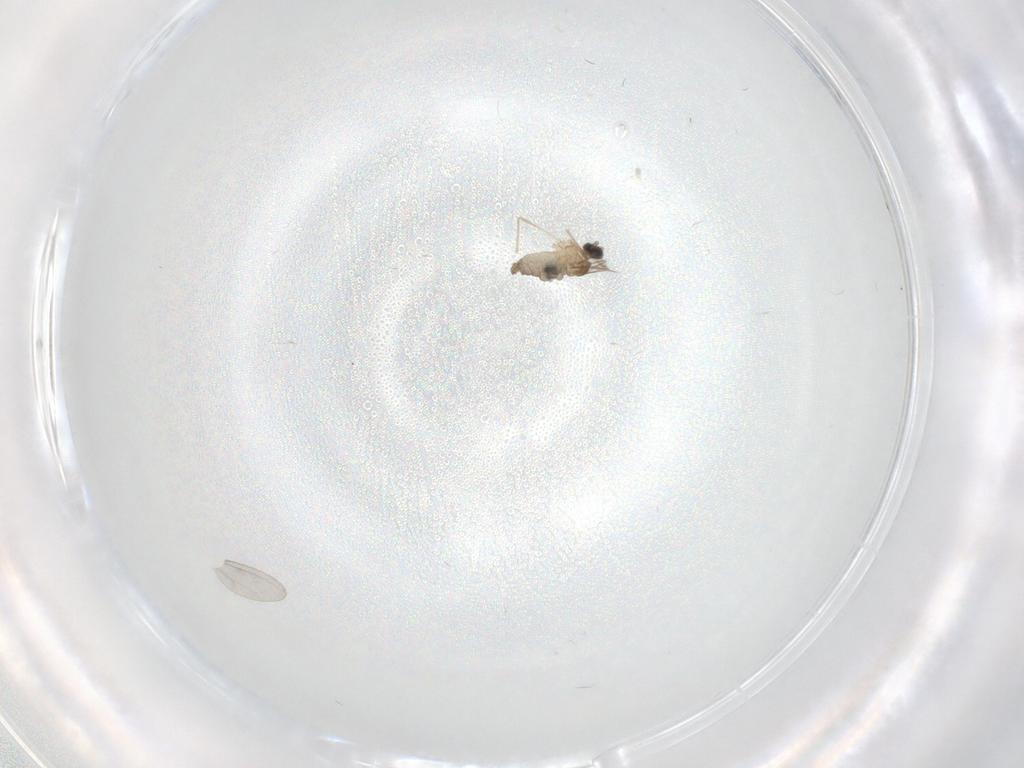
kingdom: Animalia
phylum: Arthropoda
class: Insecta
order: Diptera
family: Cecidomyiidae
